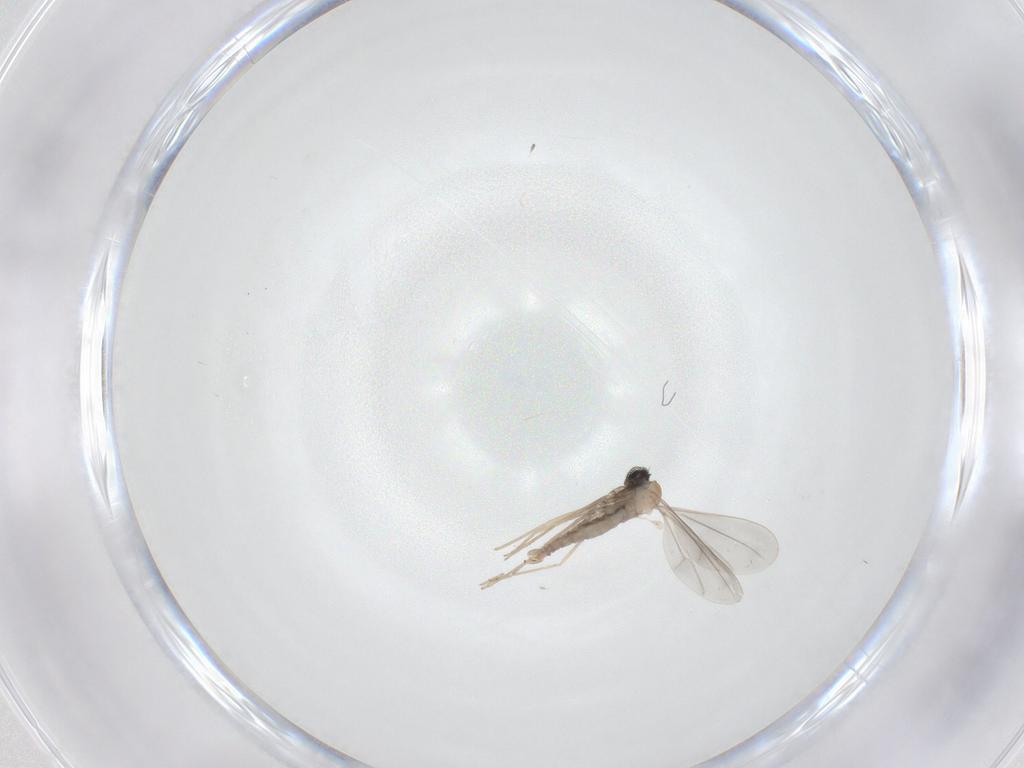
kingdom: Animalia
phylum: Arthropoda
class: Insecta
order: Diptera
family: Cecidomyiidae
